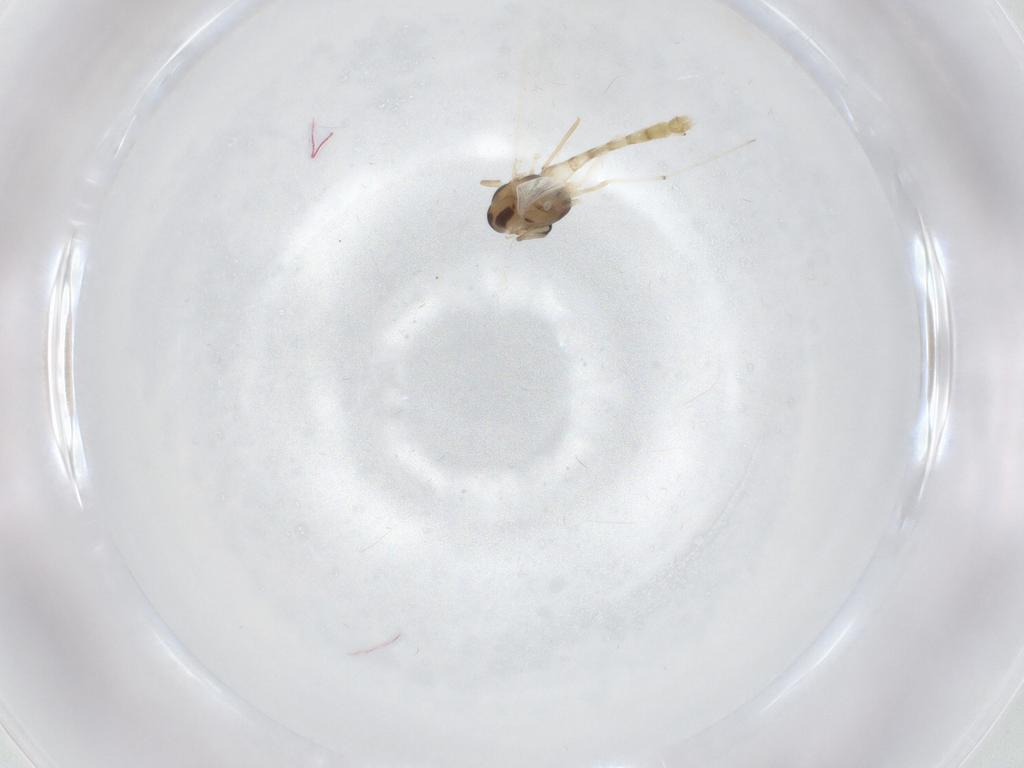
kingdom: Animalia
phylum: Arthropoda
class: Insecta
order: Diptera
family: Chironomidae
